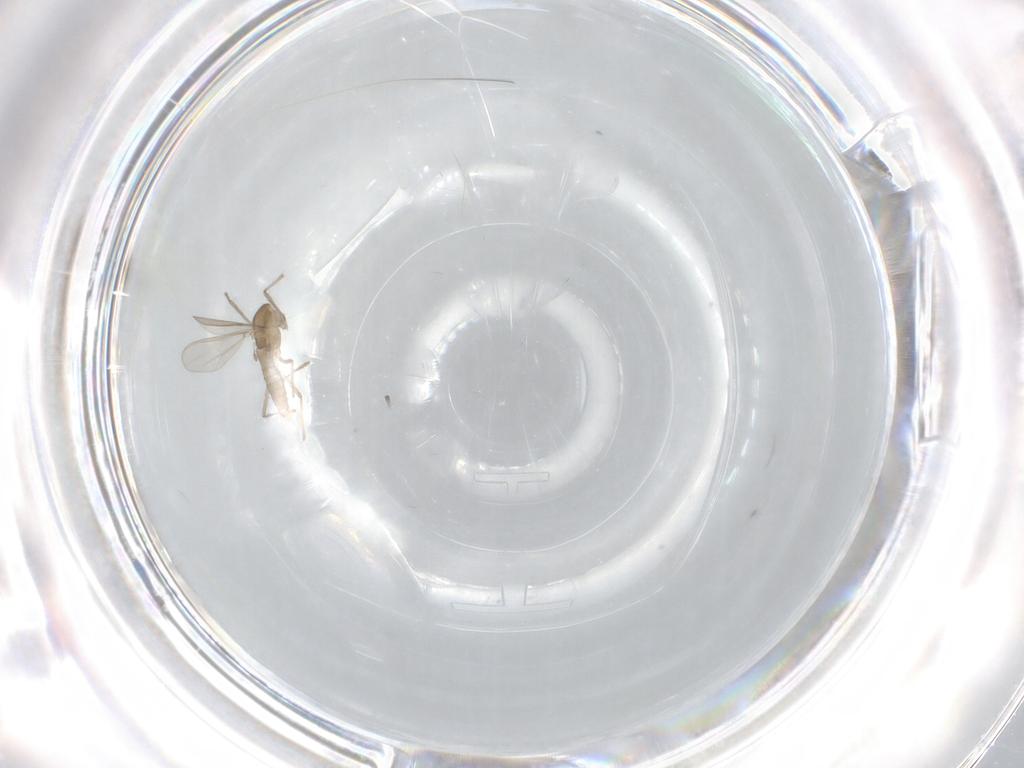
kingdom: Animalia
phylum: Arthropoda
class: Insecta
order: Diptera
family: Chironomidae
